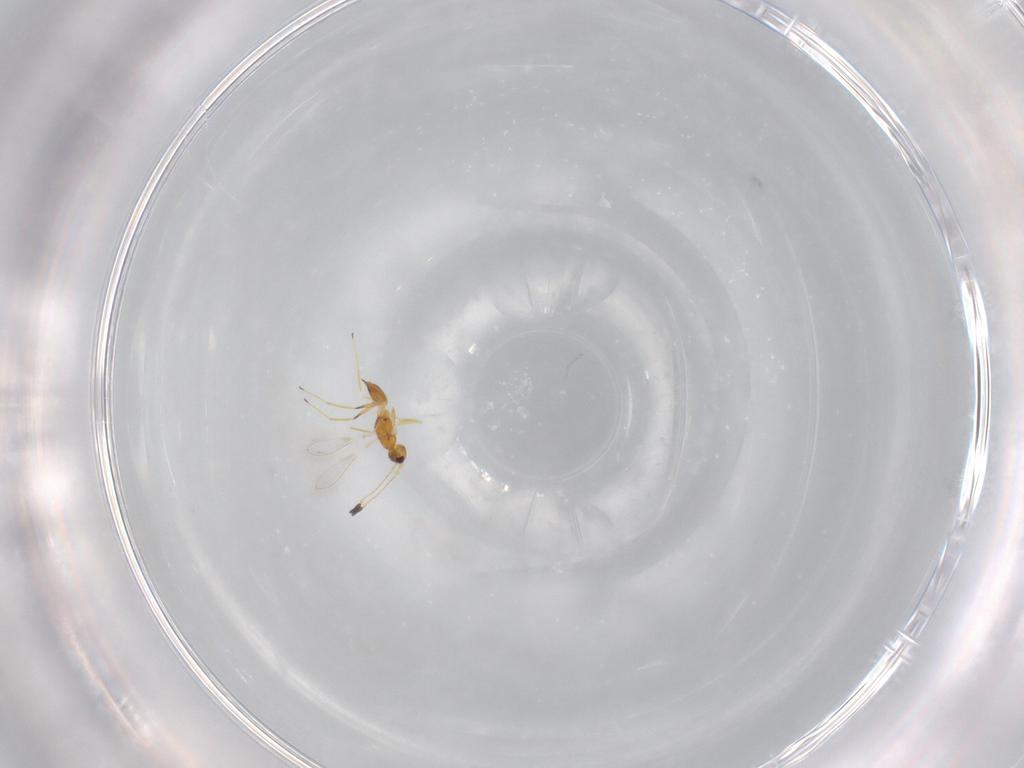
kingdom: Animalia
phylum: Arthropoda
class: Insecta
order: Hymenoptera
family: Mymaridae
